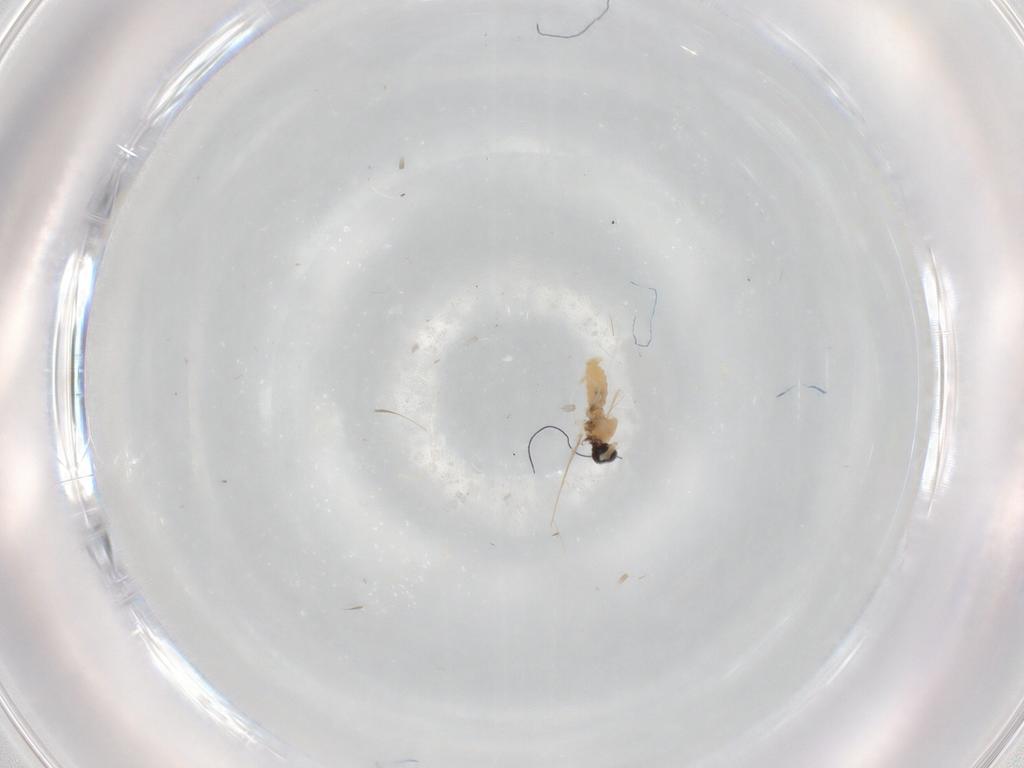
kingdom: Animalia
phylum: Arthropoda
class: Insecta
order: Diptera
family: Cecidomyiidae
